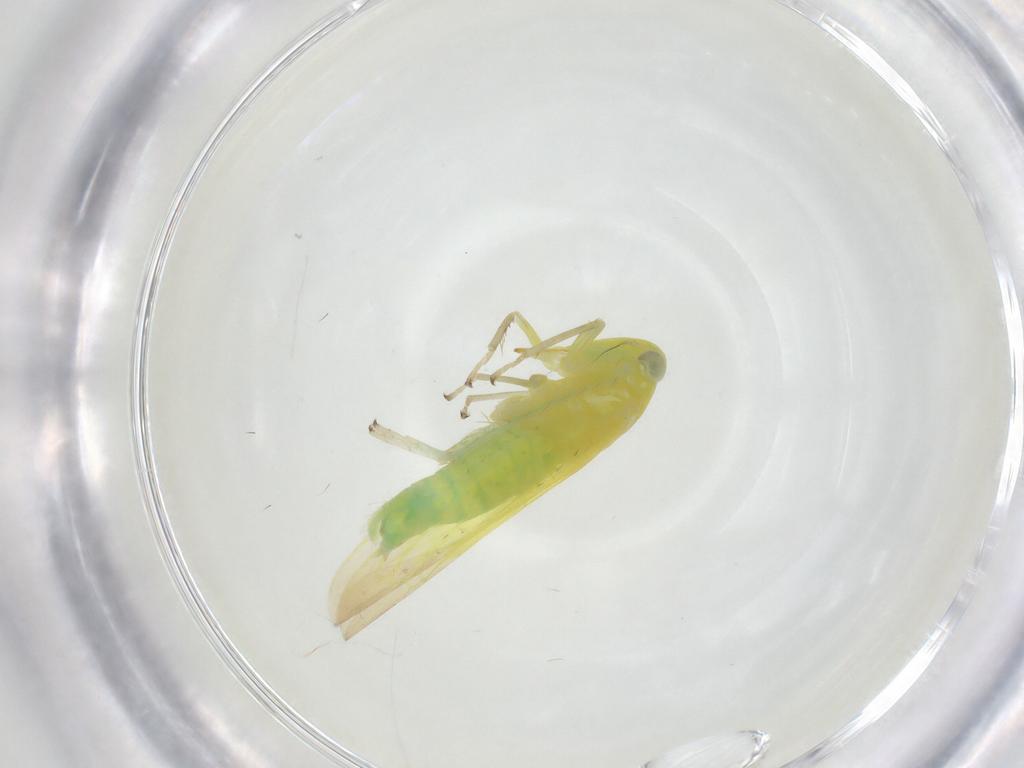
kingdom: Animalia
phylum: Arthropoda
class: Insecta
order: Hemiptera
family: Cicadellidae
